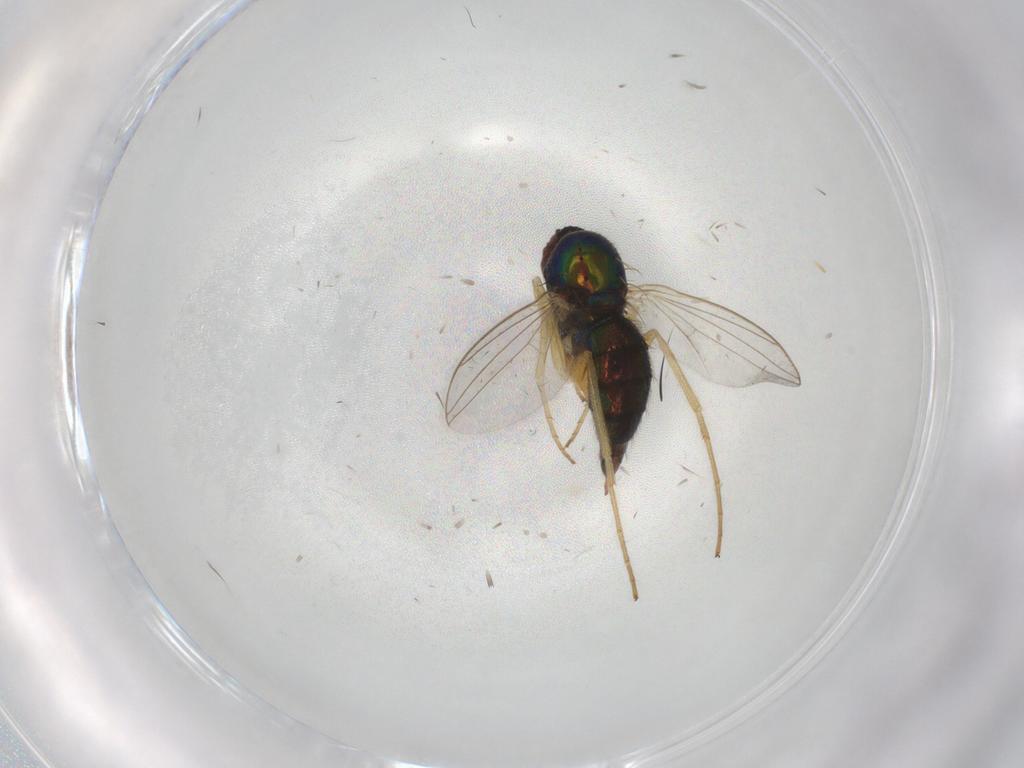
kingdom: Animalia
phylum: Arthropoda
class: Insecta
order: Diptera
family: Dolichopodidae
